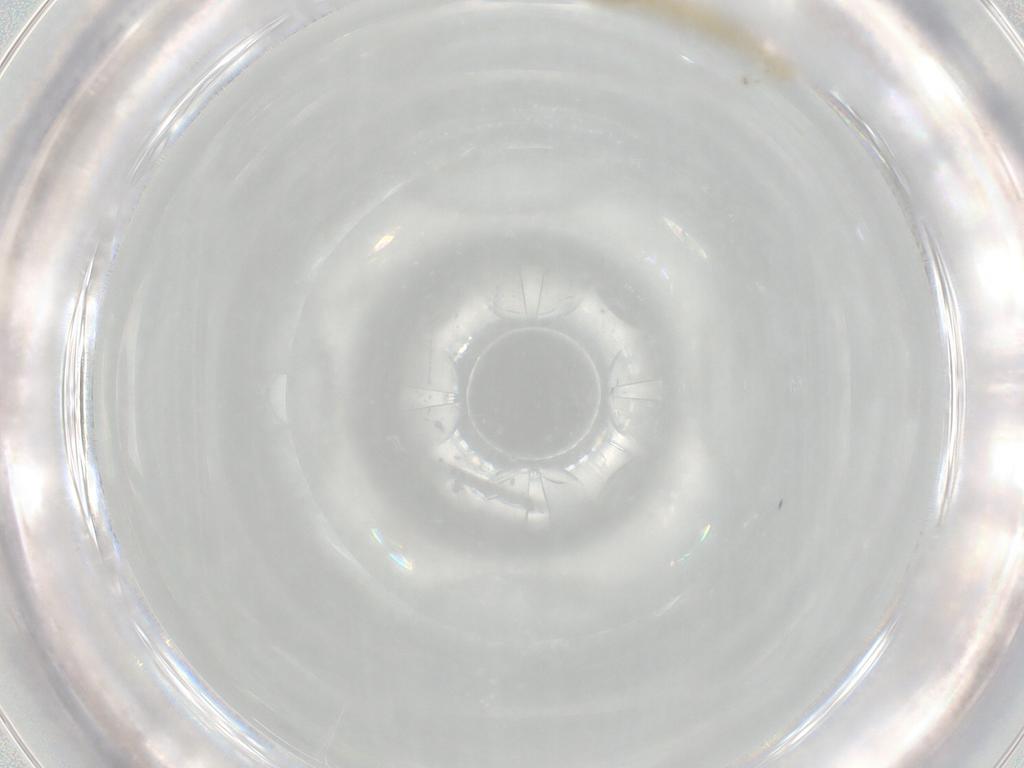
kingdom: Animalia
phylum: Arthropoda
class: Insecta
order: Diptera
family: Chironomidae
